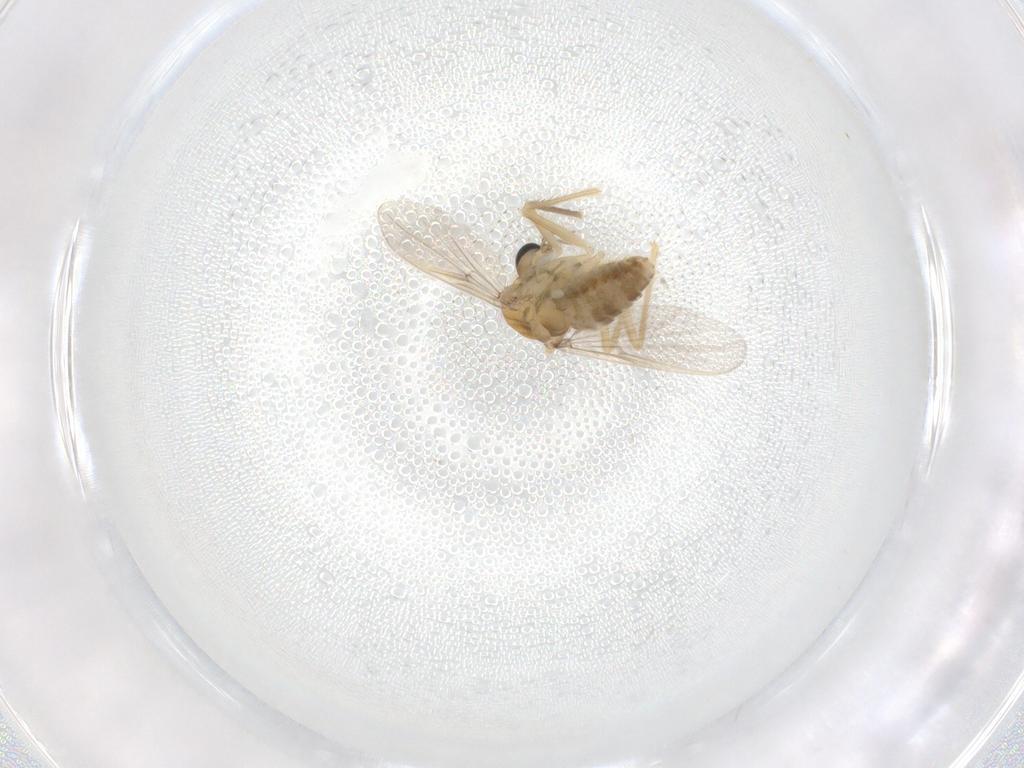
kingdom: Animalia
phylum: Arthropoda
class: Insecta
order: Diptera
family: Chironomidae
